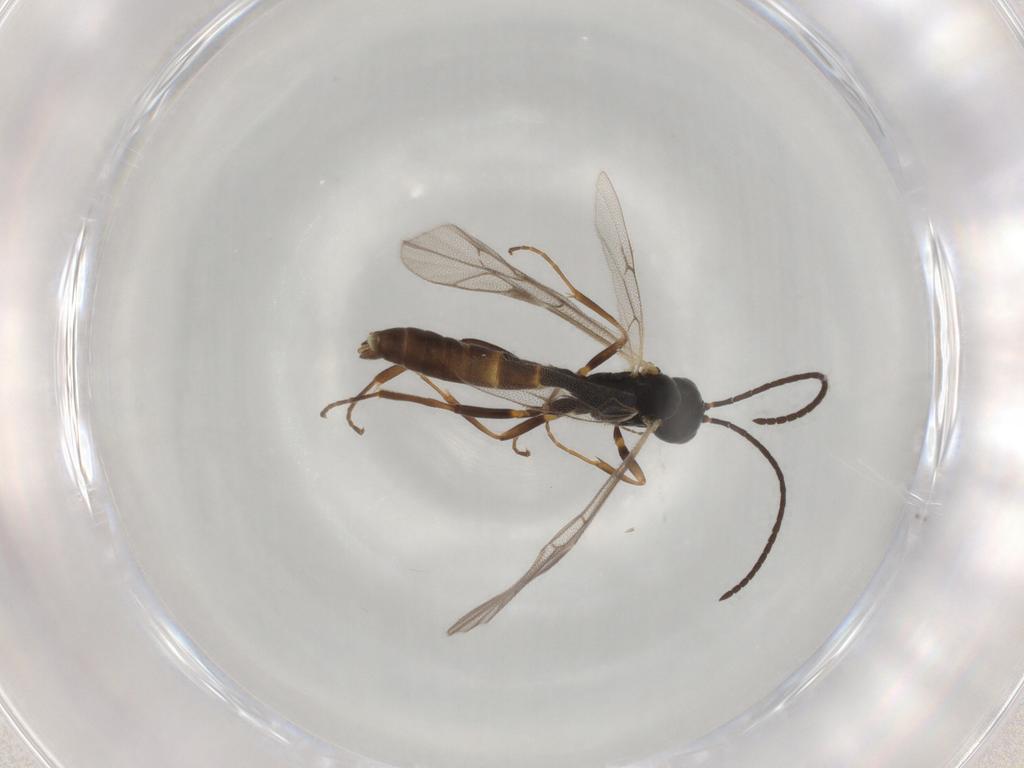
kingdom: Animalia
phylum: Arthropoda
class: Insecta
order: Hymenoptera
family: Ichneumonidae
